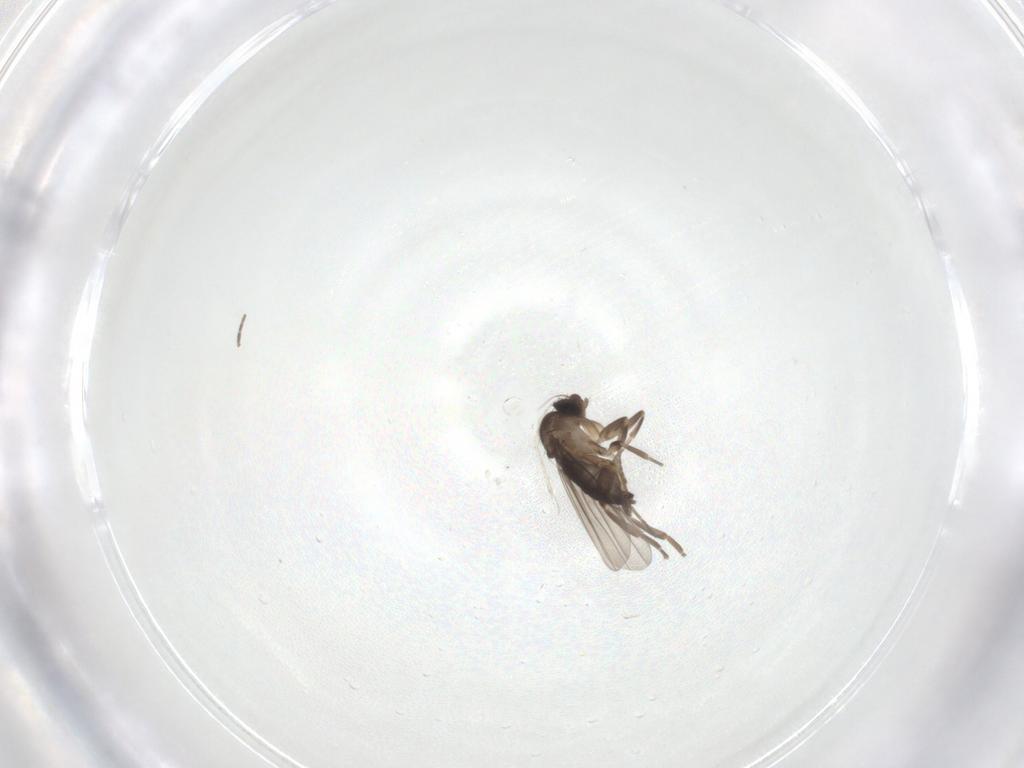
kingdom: Animalia
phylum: Arthropoda
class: Insecta
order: Diptera
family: Cecidomyiidae
